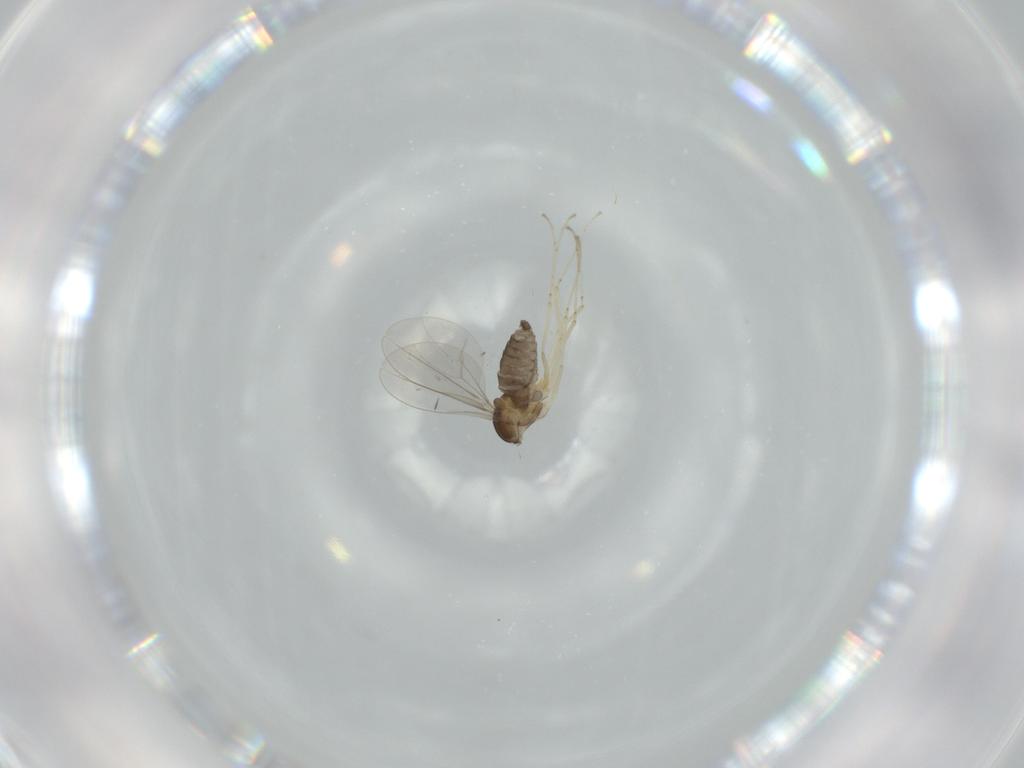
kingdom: Animalia
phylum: Arthropoda
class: Insecta
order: Diptera
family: Cecidomyiidae
